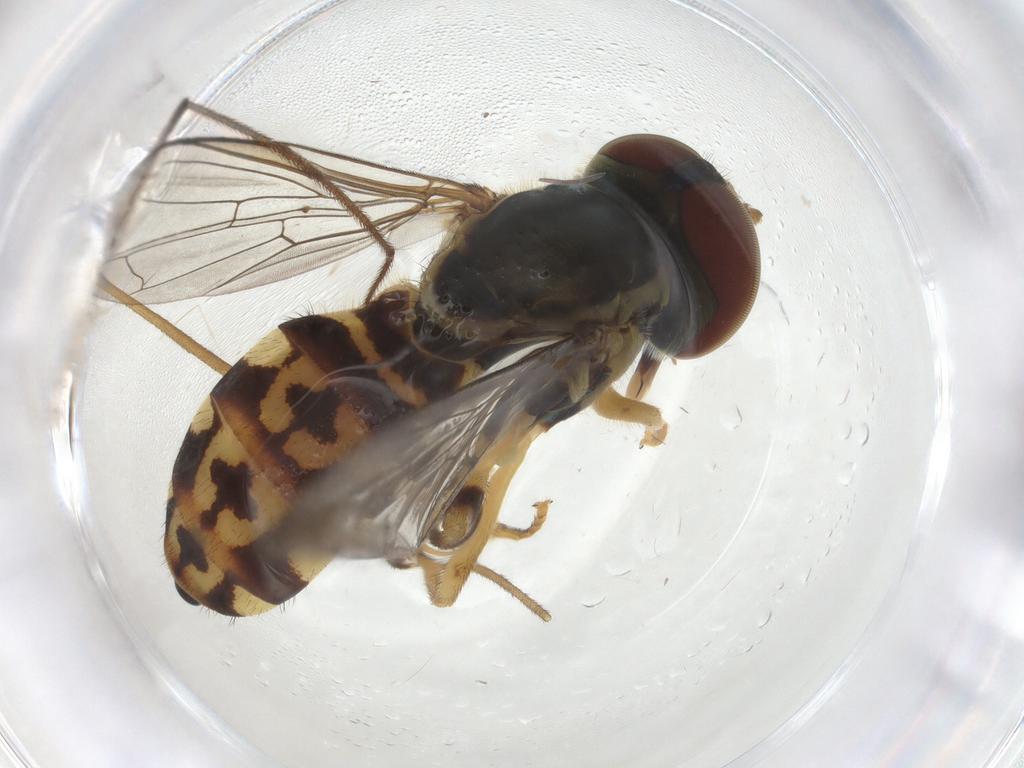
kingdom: Animalia
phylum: Arthropoda
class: Insecta
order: Diptera
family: Syrphidae
